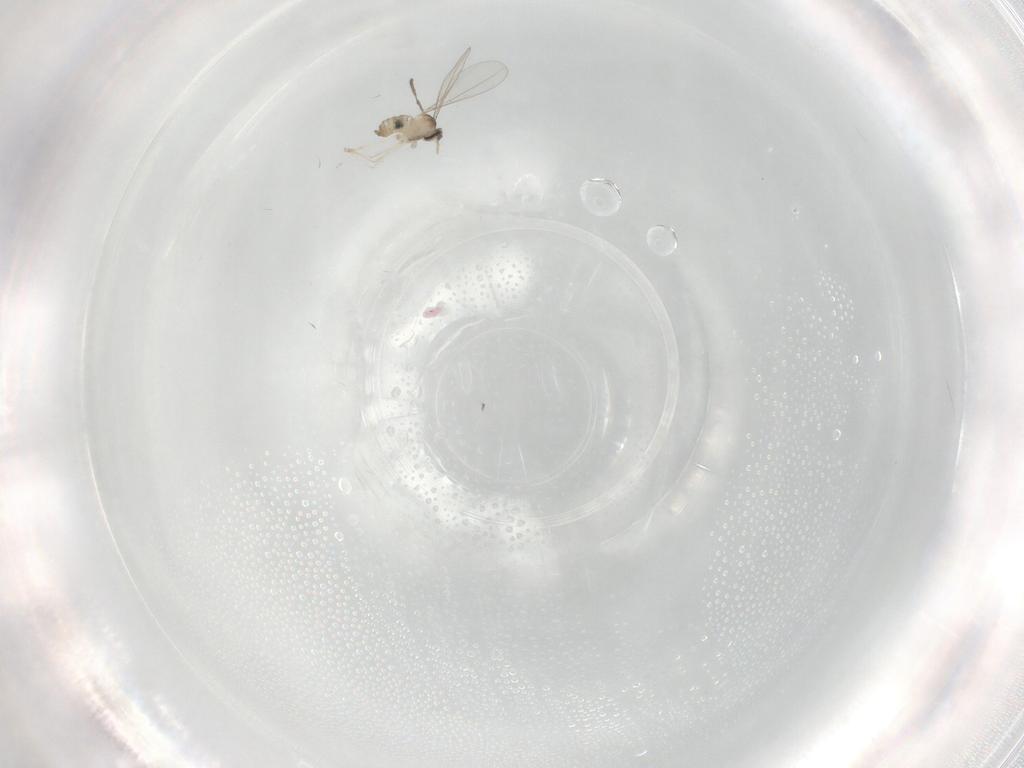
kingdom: Animalia
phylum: Arthropoda
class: Insecta
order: Diptera
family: Cecidomyiidae
